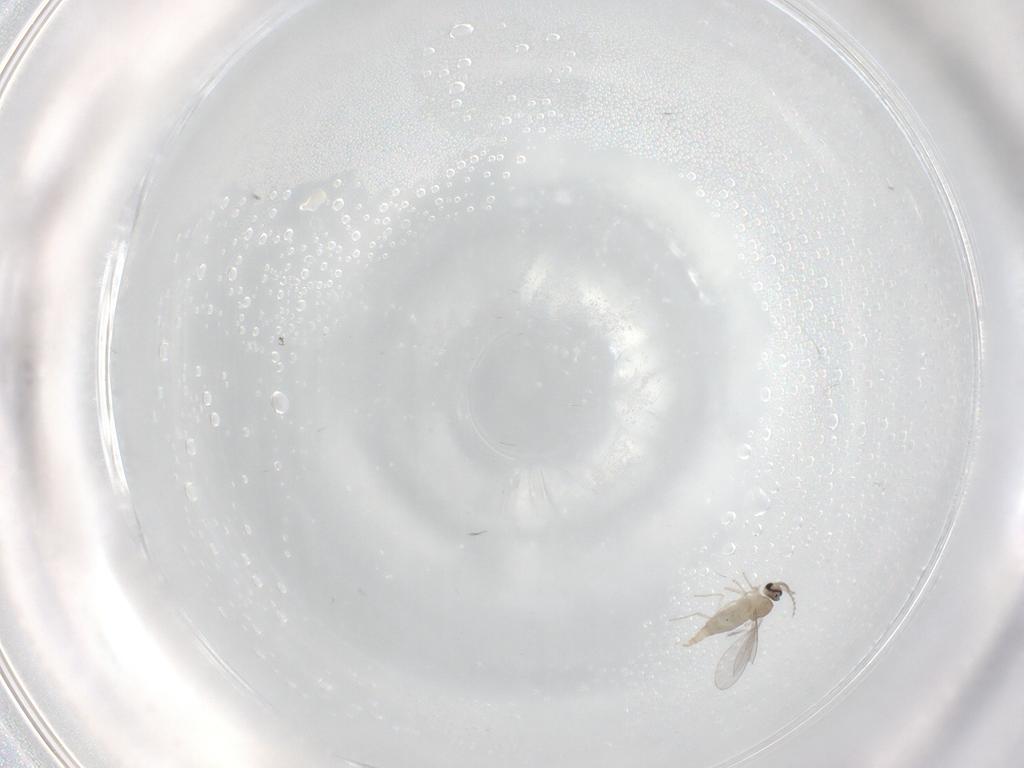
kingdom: Animalia
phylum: Arthropoda
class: Insecta
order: Diptera
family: Cecidomyiidae
